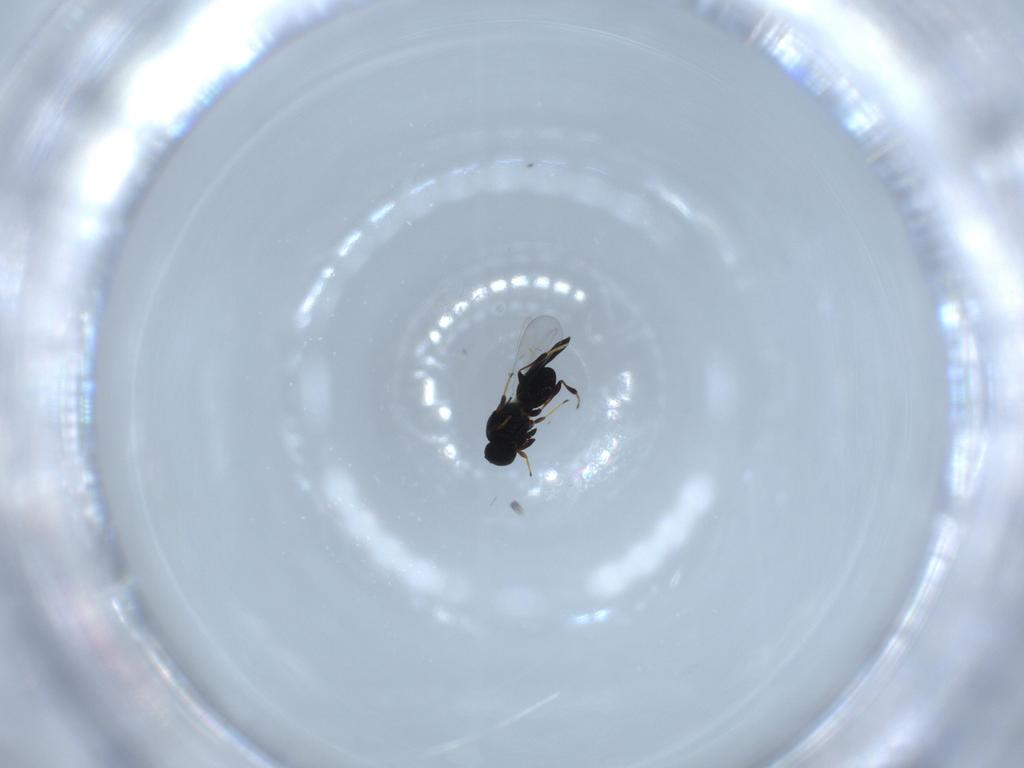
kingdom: Animalia
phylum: Arthropoda
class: Insecta
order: Hymenoptera
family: Platygastridae
